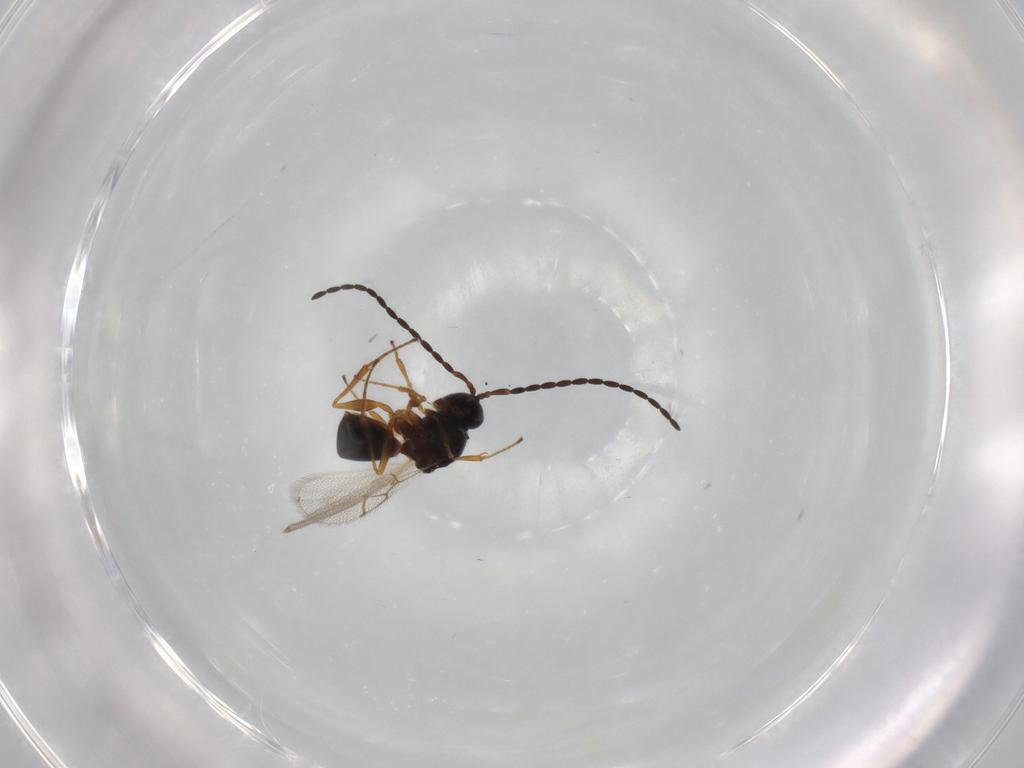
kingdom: Animalia
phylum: Arthropoda
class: Insecta
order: Hymenoptera
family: Figitidae
